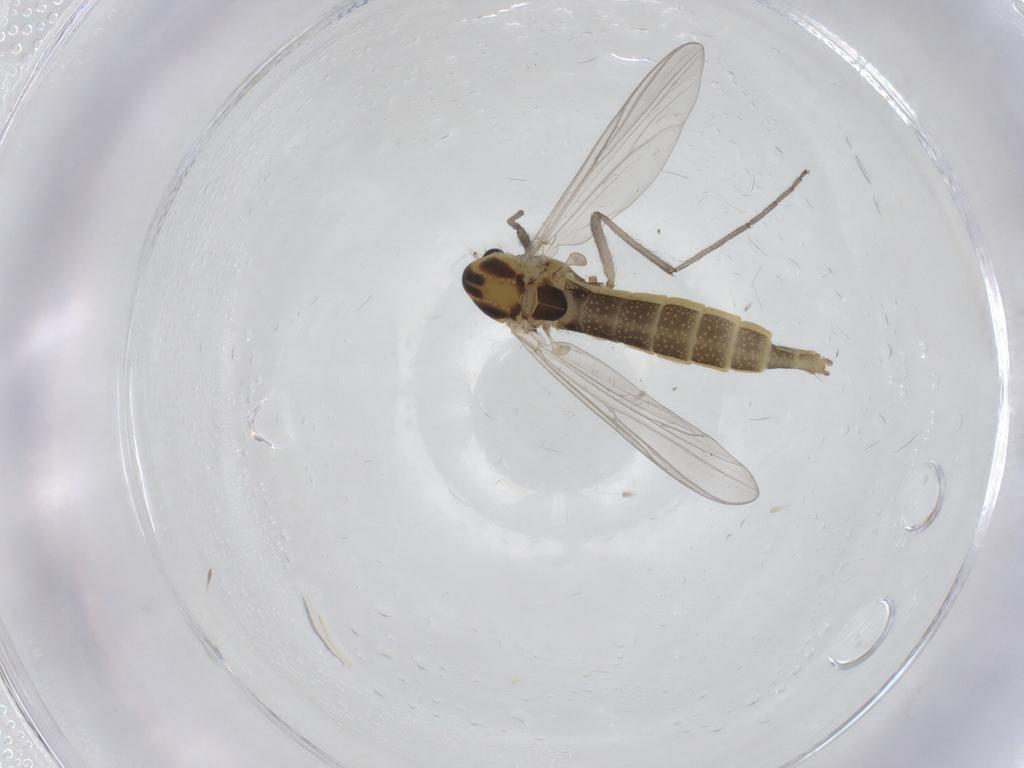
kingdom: Animalia
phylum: Arthropoda
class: Insecta
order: Diptera
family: Chironomidae
